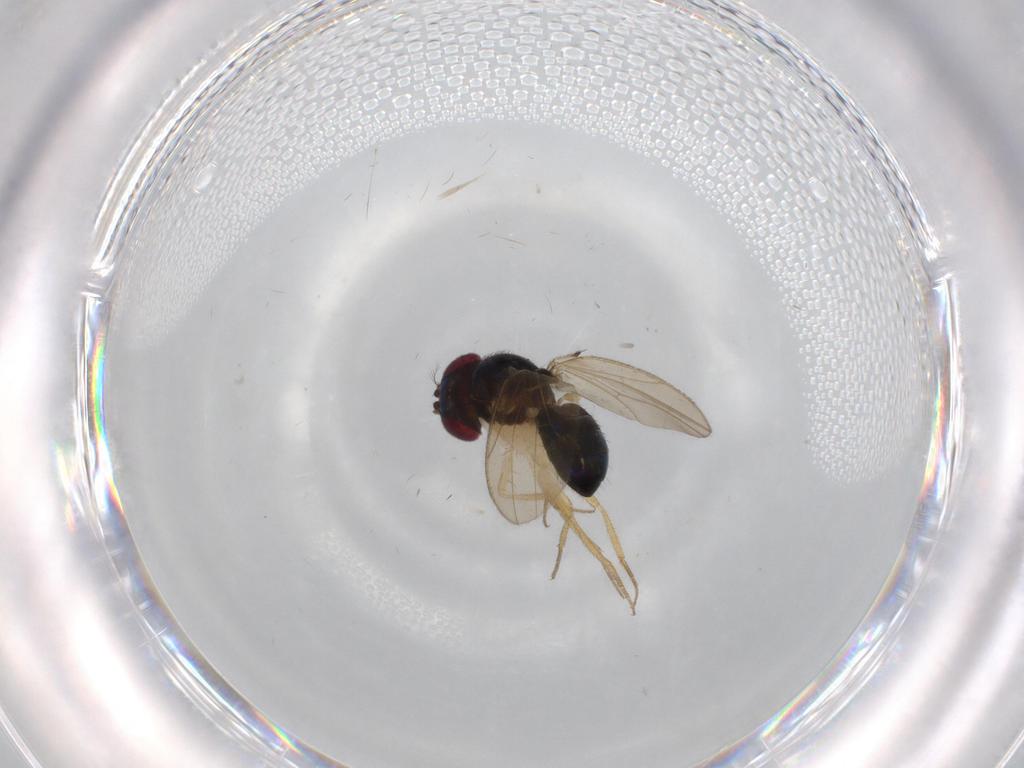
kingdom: Animalia
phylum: Arthropoda
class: Insecta
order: Diptera
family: Drosophilidae
